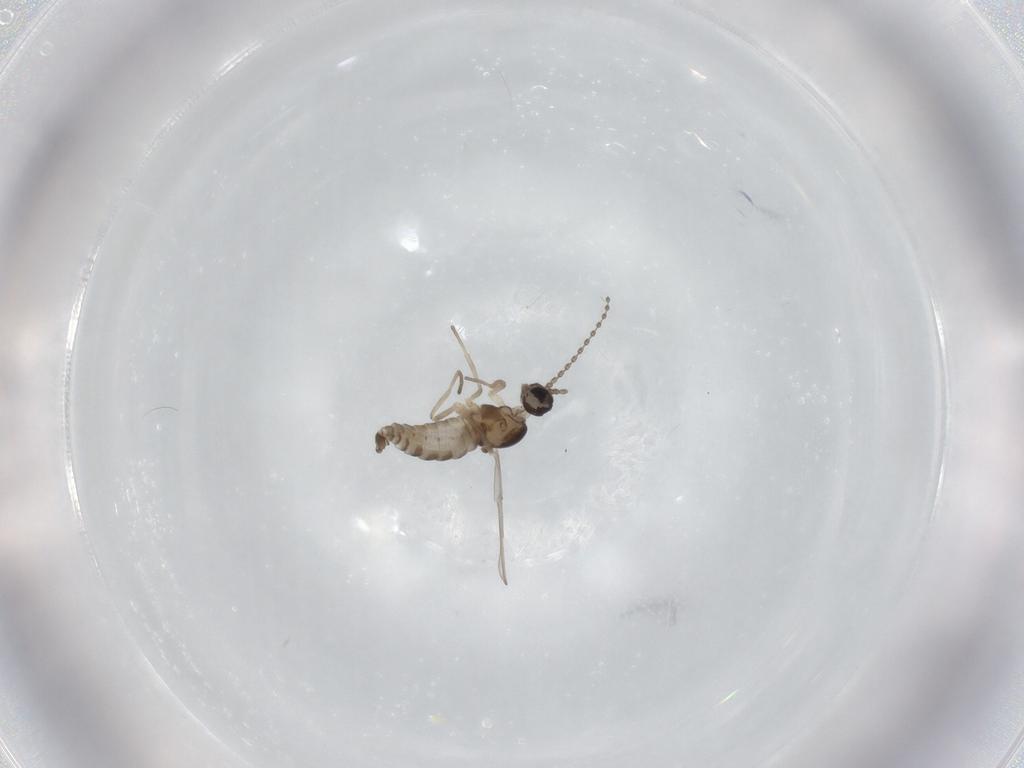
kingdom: Animalia
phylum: Arthropoda
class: Insecta
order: Diptera
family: Cecidomyiidae
